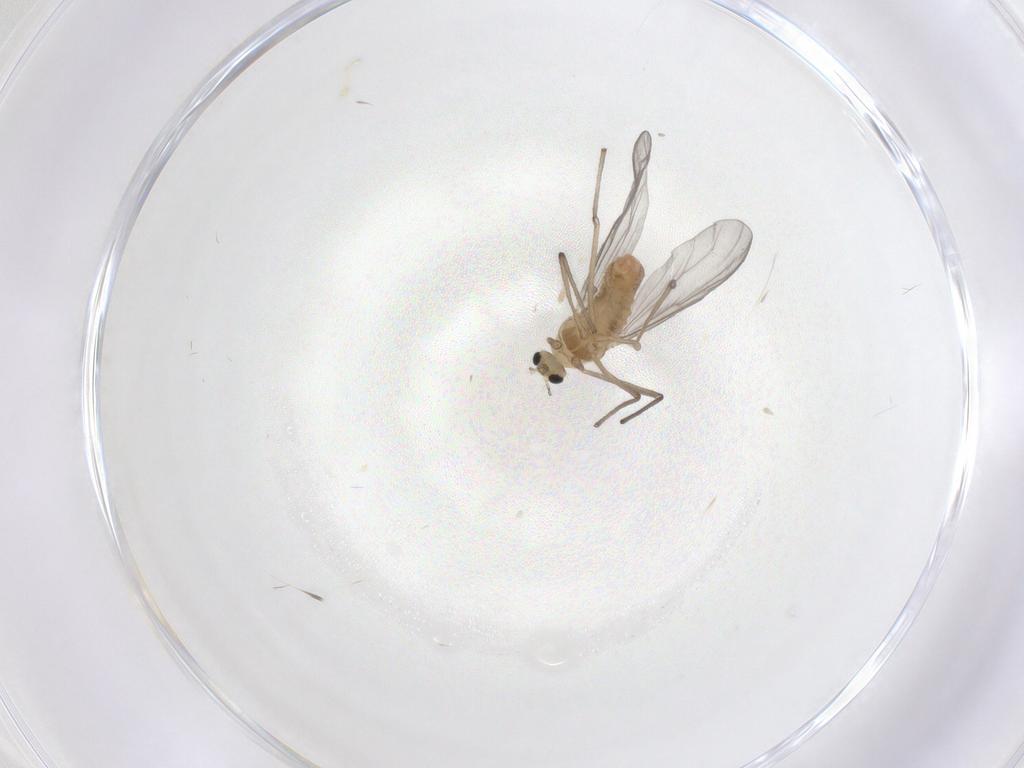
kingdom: Animalia
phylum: Arthropoda
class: Insecta
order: Diptera
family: Chironomidae
